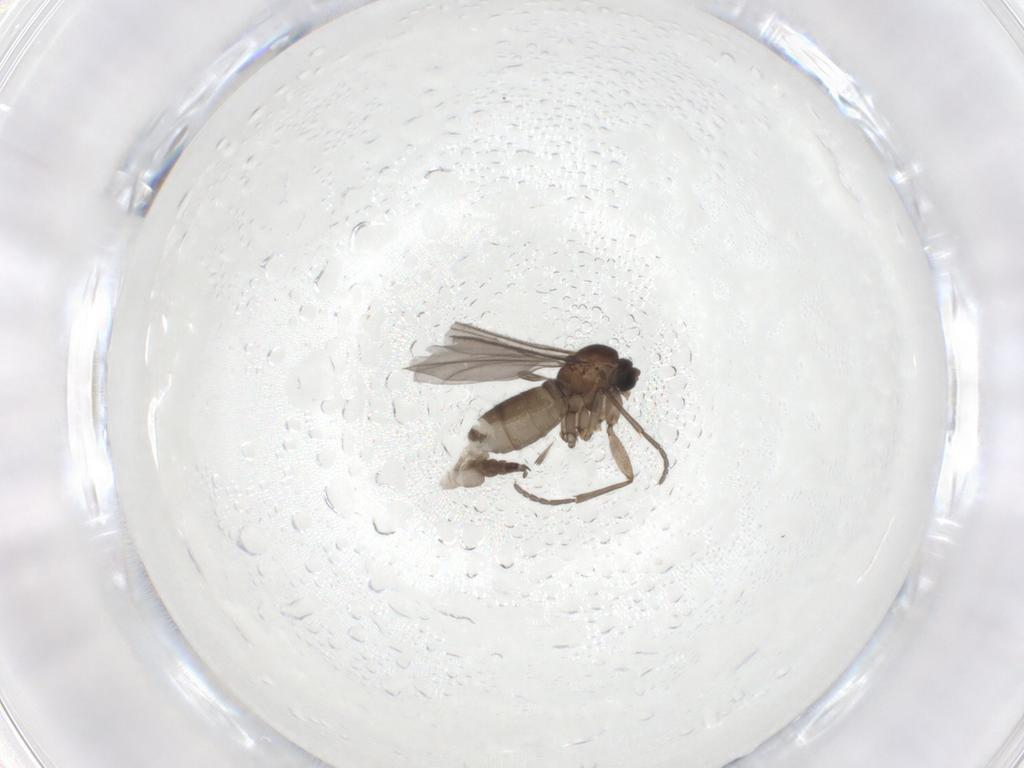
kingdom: Animalia
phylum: Arthropoda
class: Insecta
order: Diptera
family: Sciaridae
